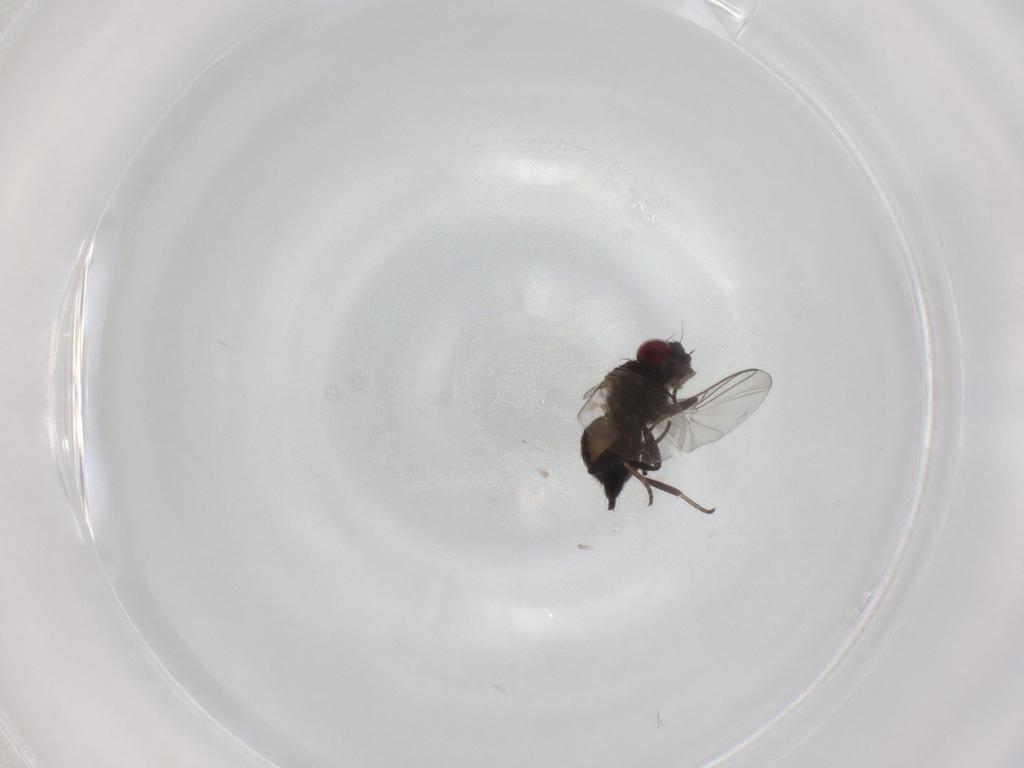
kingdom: Animalia
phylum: Arthropoda
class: Insecta
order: Diptera
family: Agromyzidae
